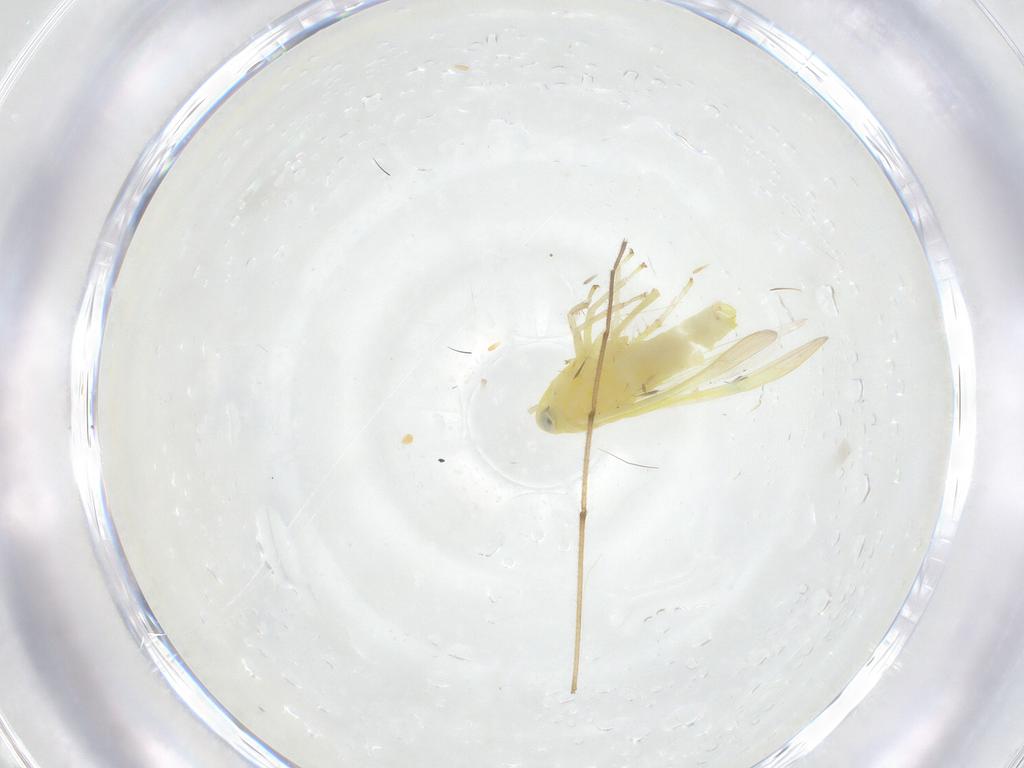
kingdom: Animalia
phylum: Arthropoda
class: Insecta
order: Hemiptera
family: Cicadellidae
